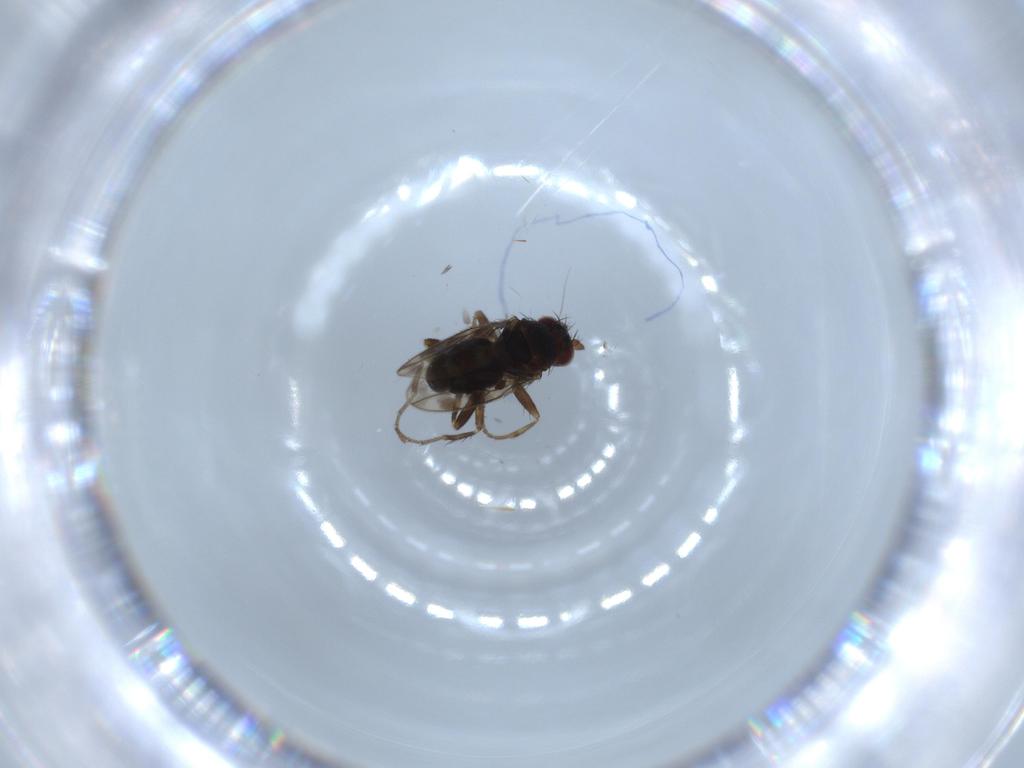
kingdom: Animalia
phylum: Arthropoda
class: Insecta
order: Diptera
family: Sphaeroceridae
